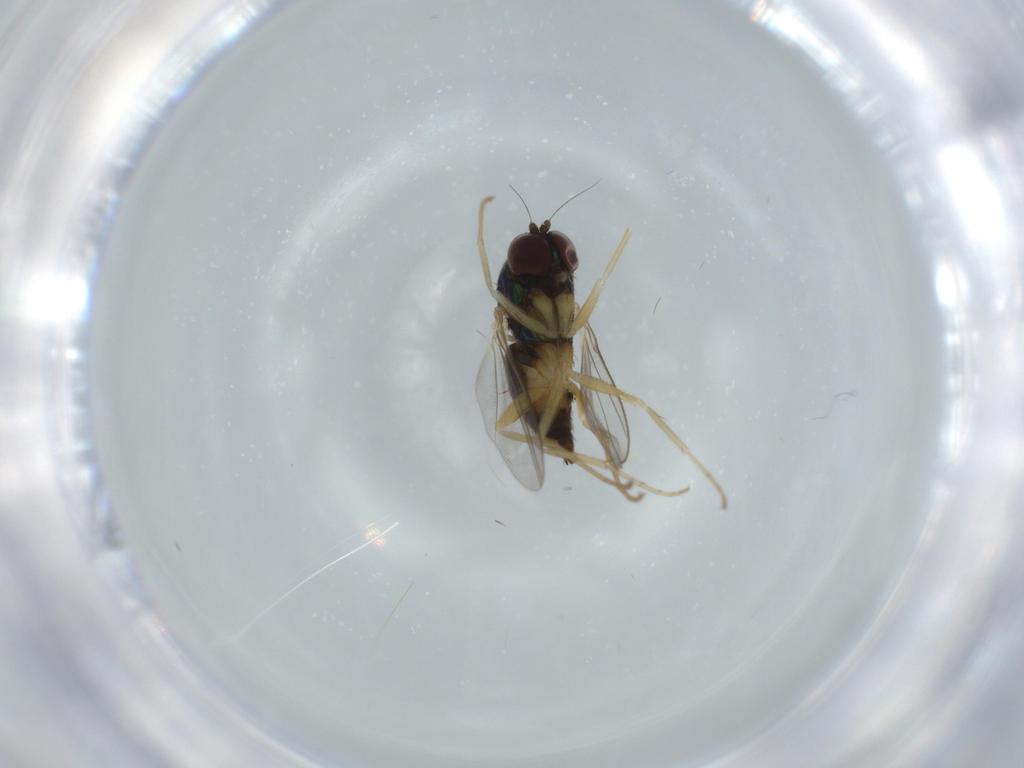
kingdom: Animalia
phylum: Arthropoda
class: Insecta
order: Diptera
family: Dolichopodidae
